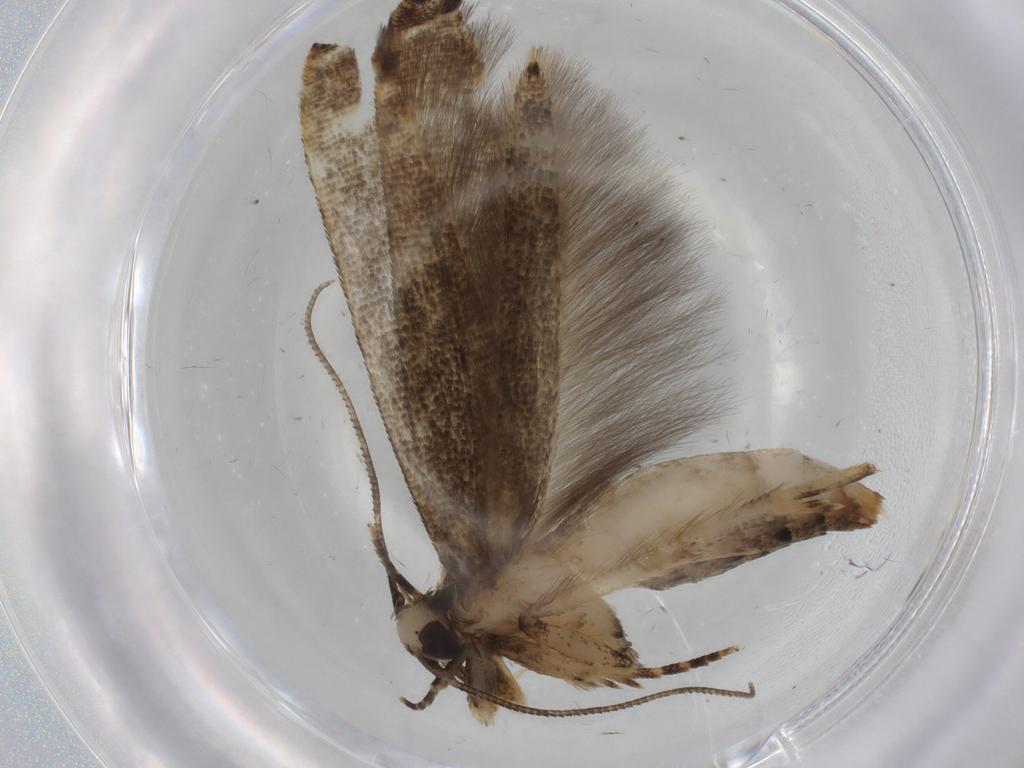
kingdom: Animalia
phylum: Arthropoda
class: Insecta
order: Lepidoptera
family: Cosmopterigidae
